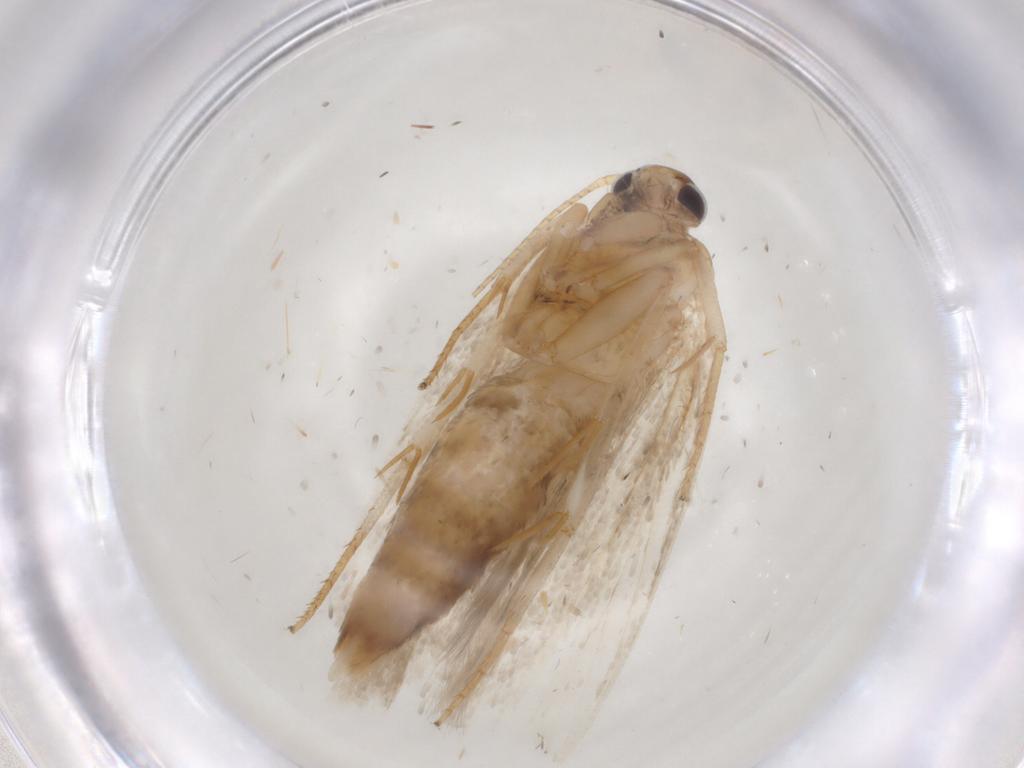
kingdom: Animalia
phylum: Arthropoda
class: Insecta
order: Lepidoptera
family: Gelechiidae
